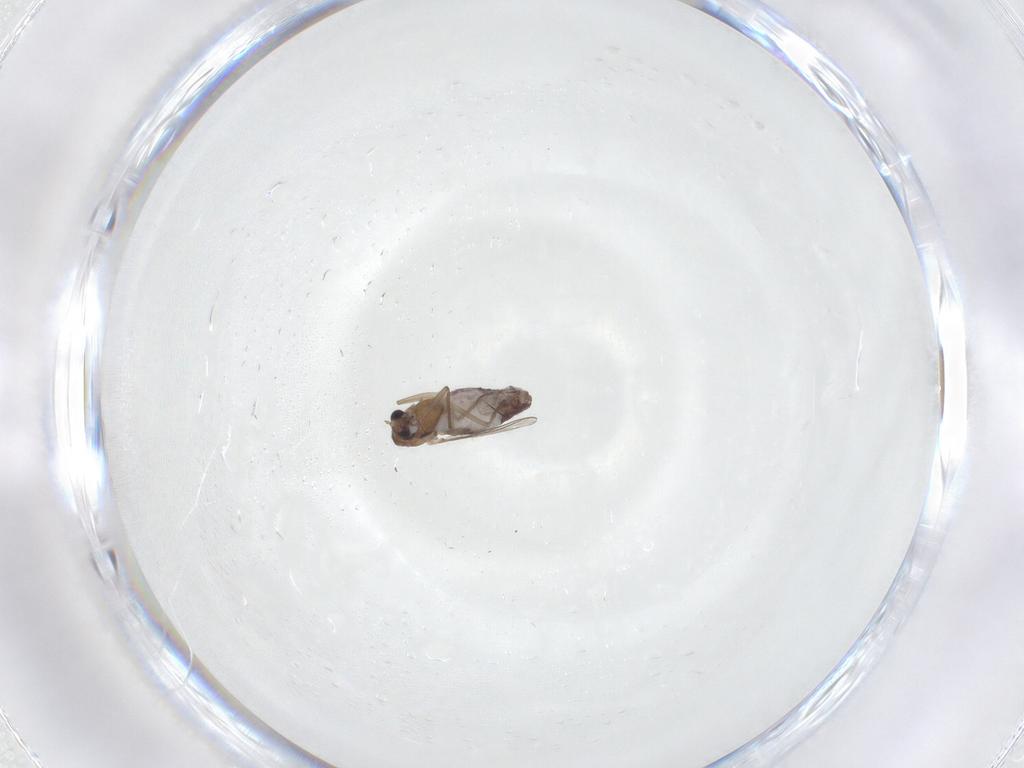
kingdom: Animalia
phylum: Arthropoda
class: Insecta
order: Diptera
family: Chironomidae
